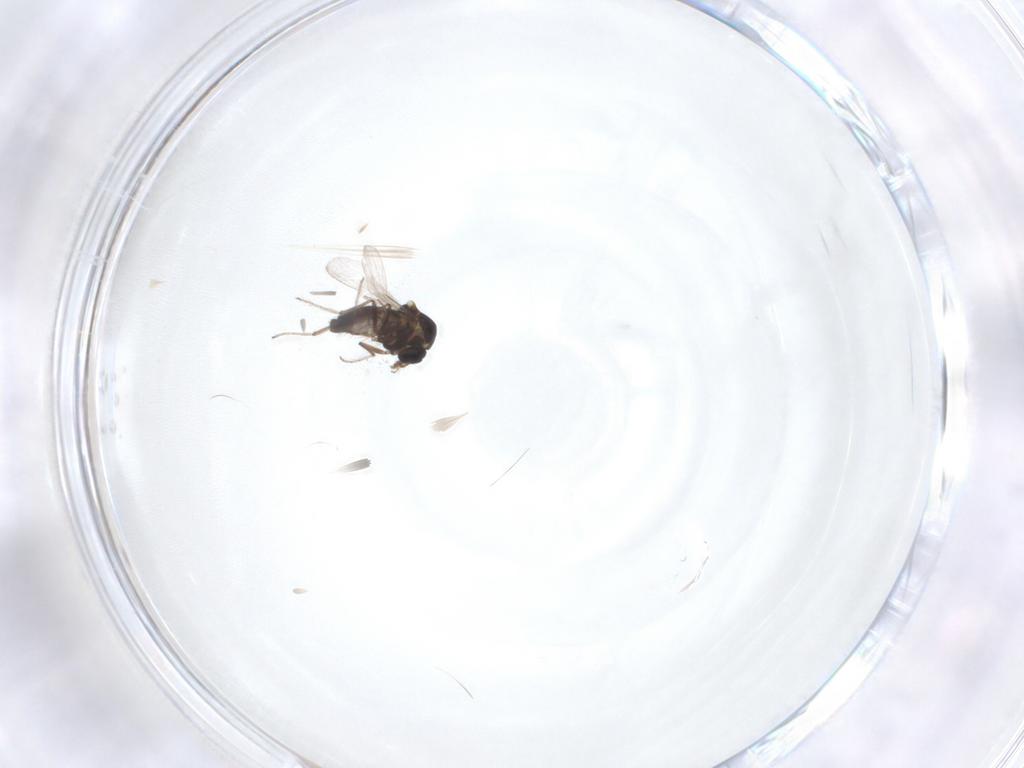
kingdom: Animalia
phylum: Arthropoda
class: Insecta
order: Diptera
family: Ceratopogonidae
